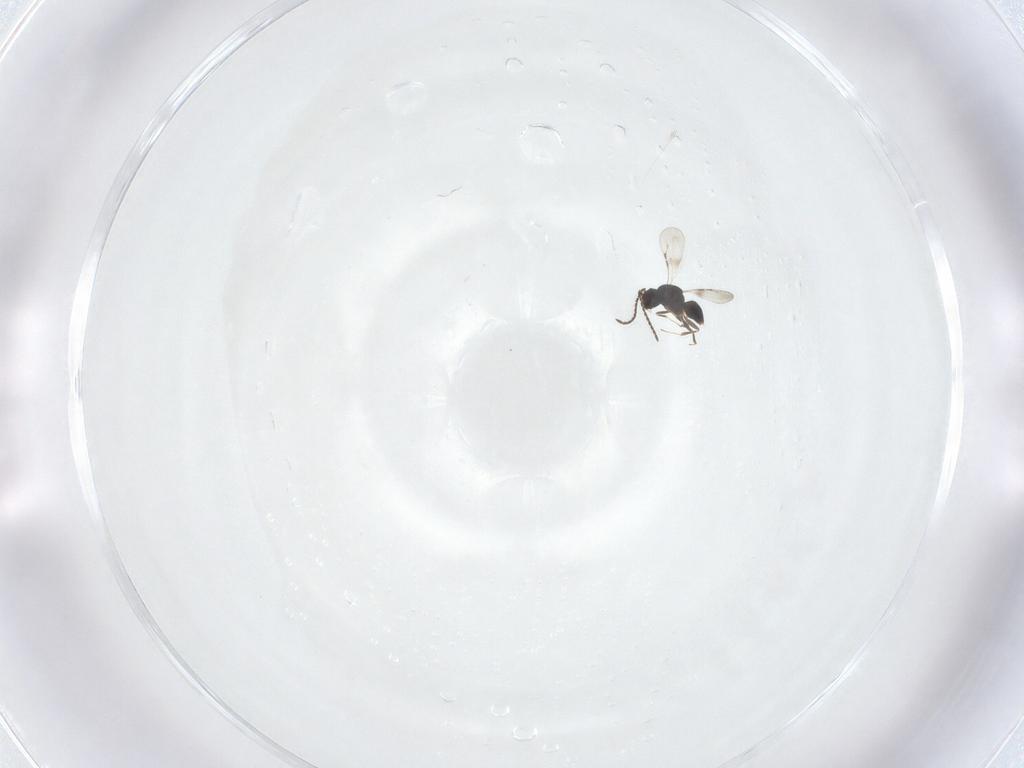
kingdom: Animalia
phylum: Arthropoda
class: Insecta
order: Hymenoptera
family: Ceraphronidae
